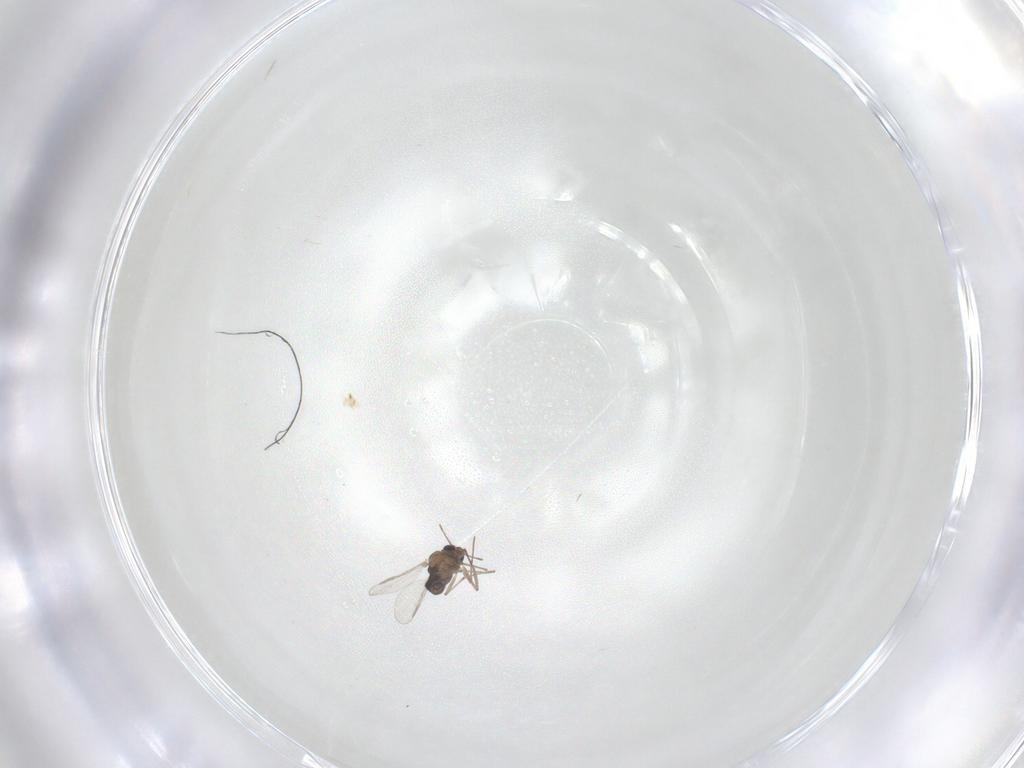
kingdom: Animalia
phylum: Arthropoda
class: Insecta
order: Diptera
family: Chironomidae
